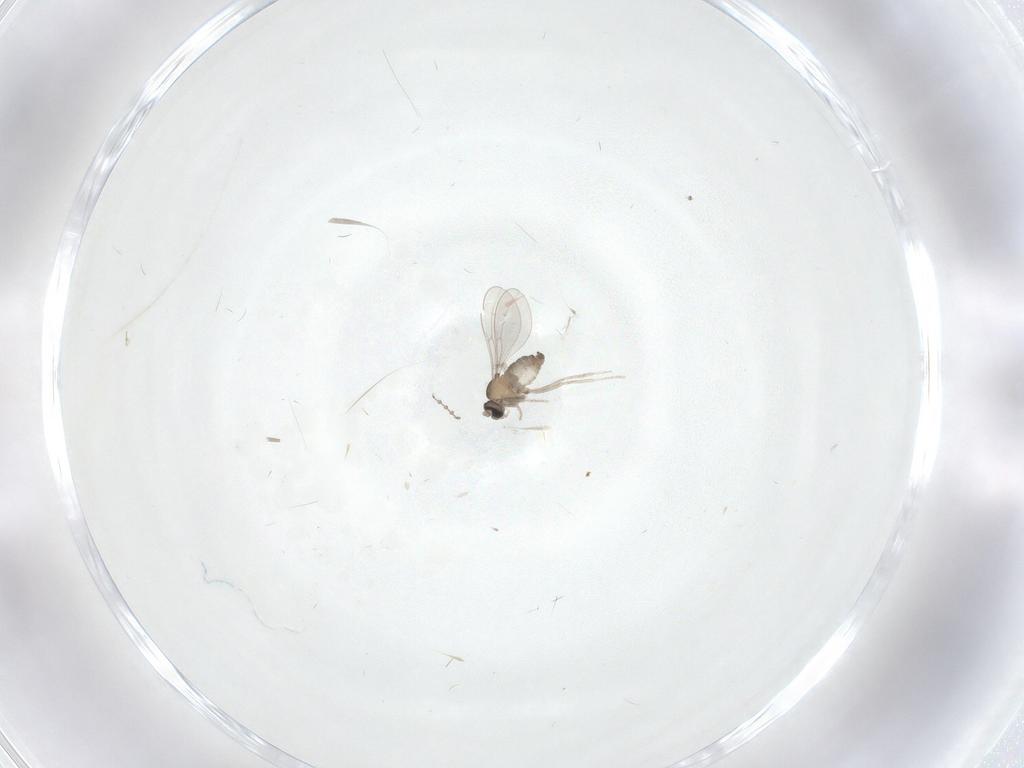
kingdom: Animalia
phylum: Arthropoda
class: Insecta
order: Diptera
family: Cecidomyiidae
